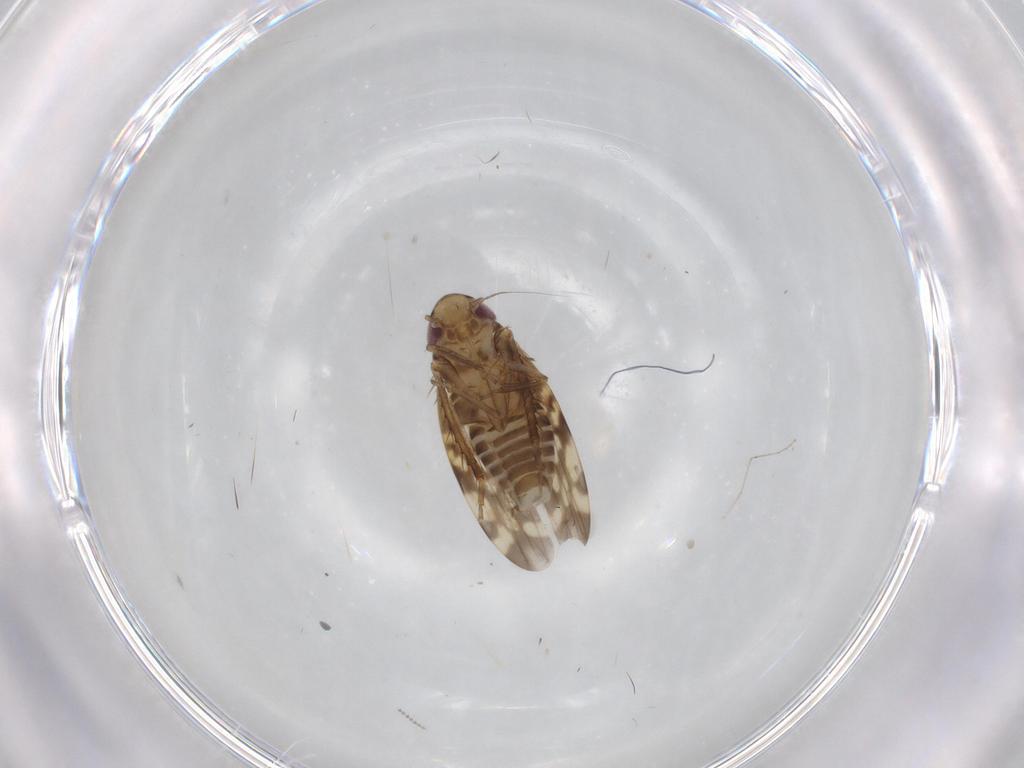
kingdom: Animalia
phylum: Arthropoda
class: Insecta
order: Hemiptera
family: Cicadellidae
